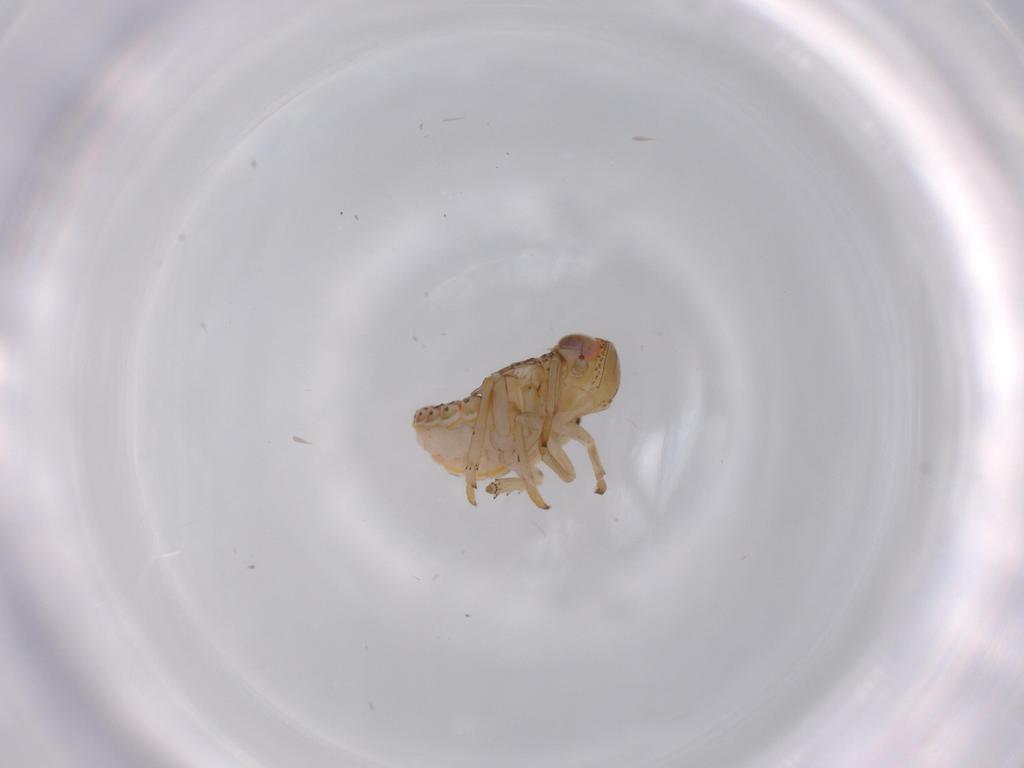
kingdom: Animalia
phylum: Arthropoda
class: Insecta
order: Hemiptera
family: Issidae
